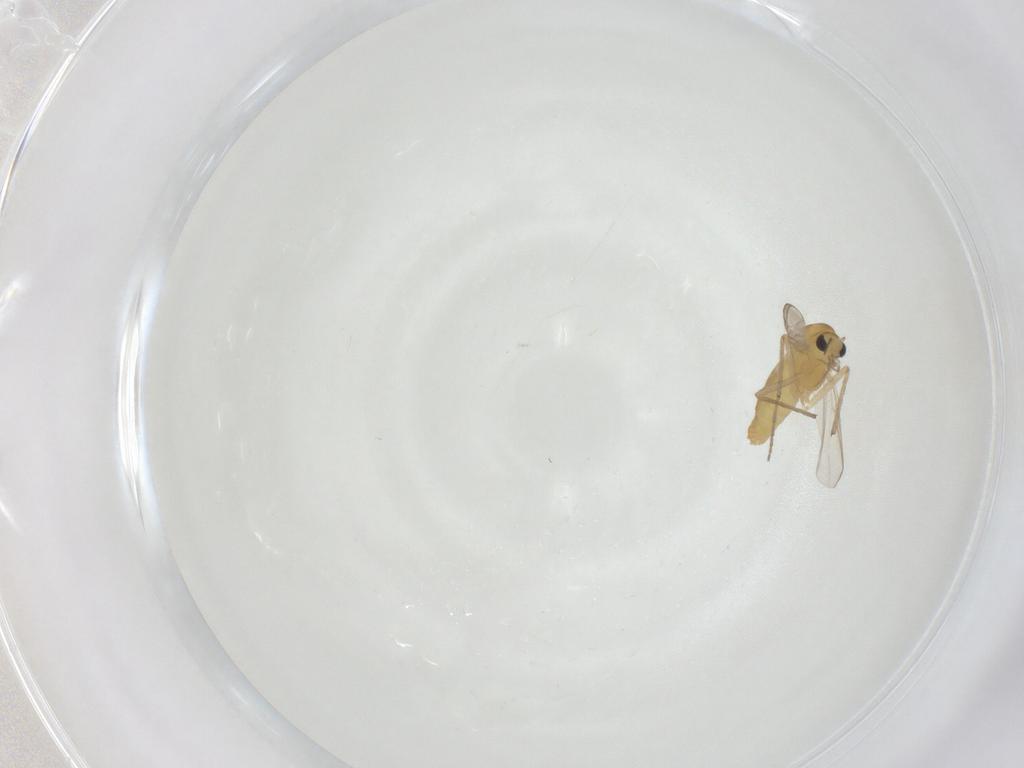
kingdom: Animalia
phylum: Arthropoda
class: Insecta
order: Diptera
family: Chironomidae
